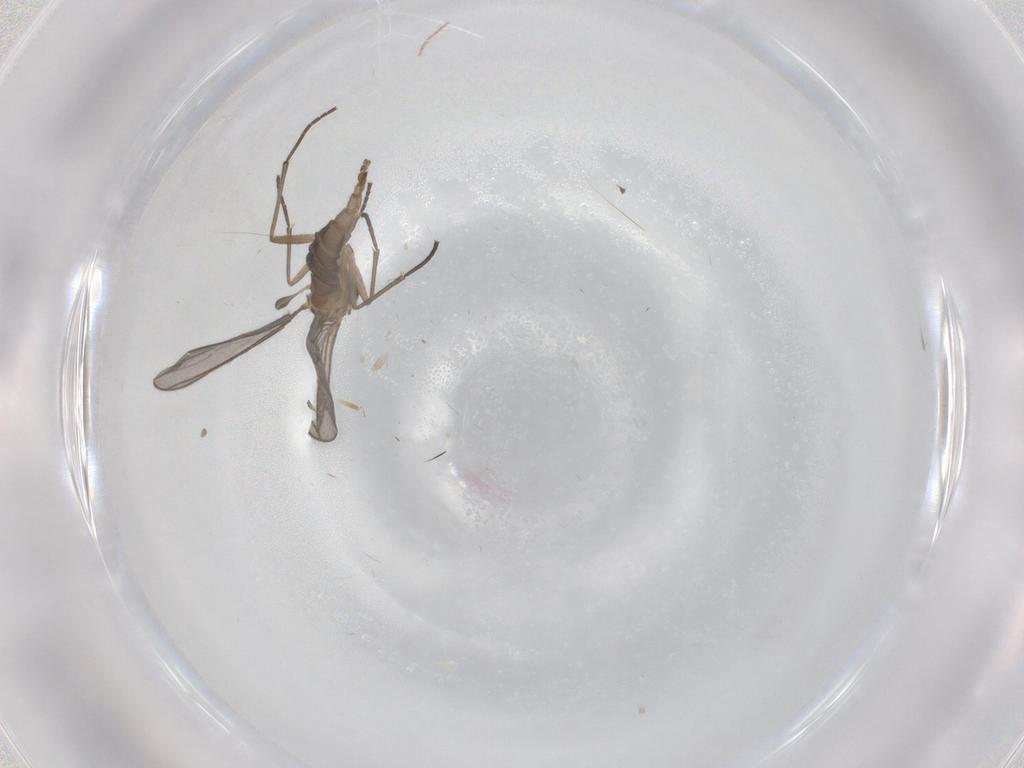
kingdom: Animalia
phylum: Arthropoda
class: Insecta
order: Diptera
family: Sciaridae
